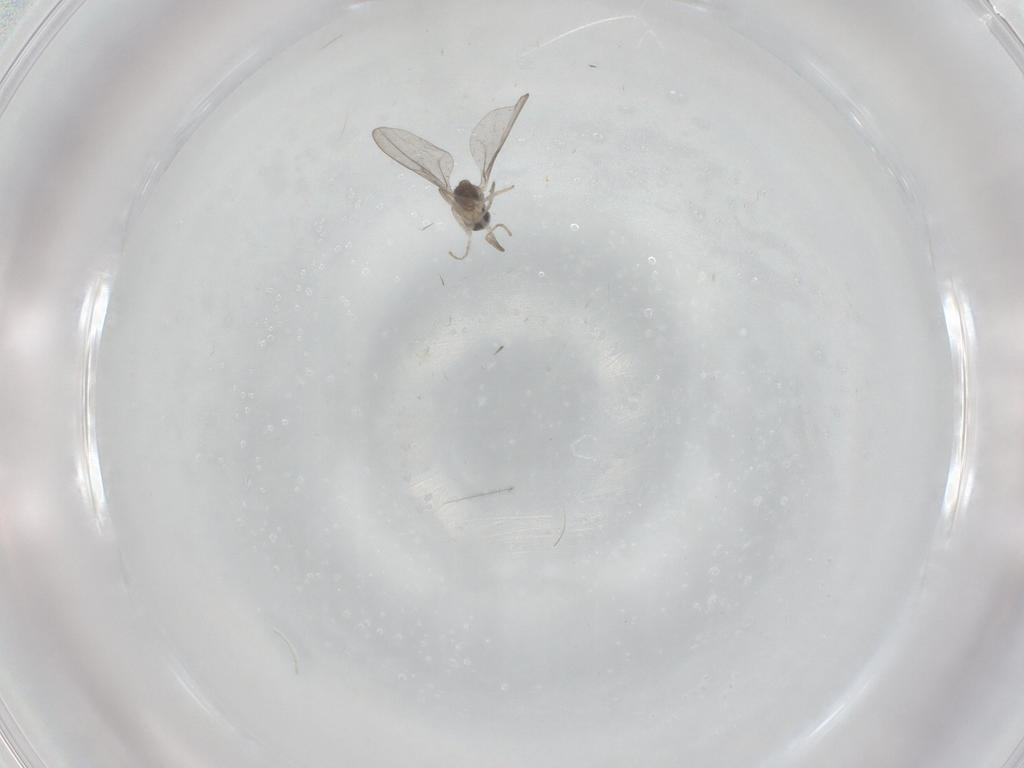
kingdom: Animalia
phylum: Arthropoda
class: Insecta
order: Diptera
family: Cecidomyiidae
